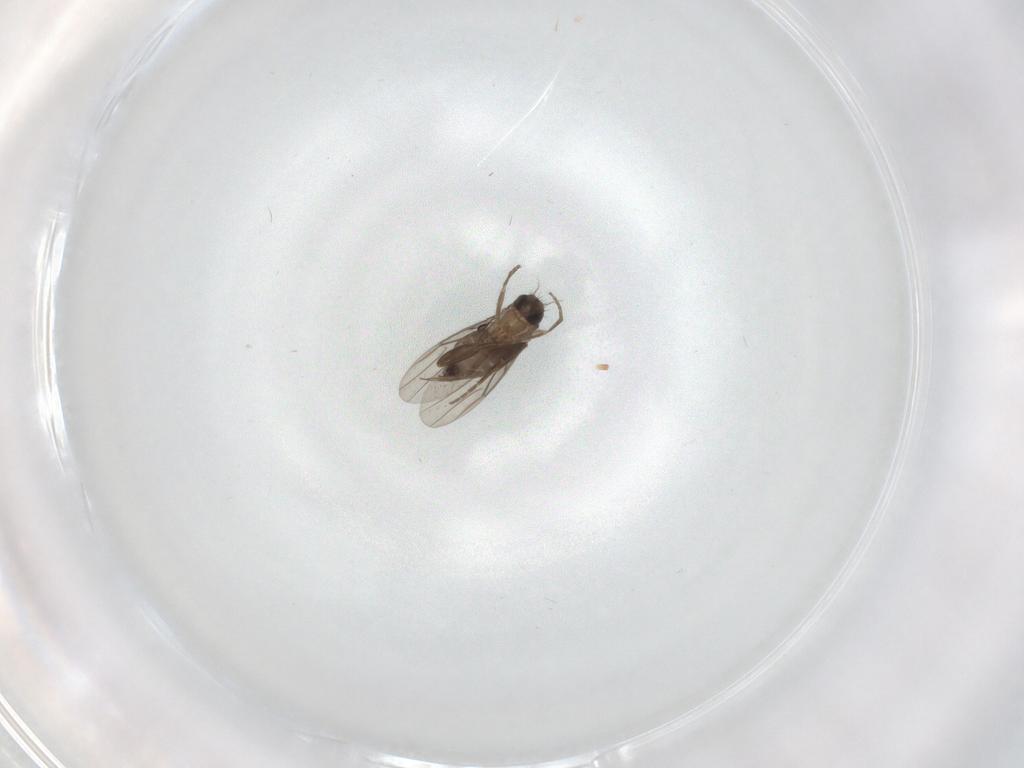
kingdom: Animalia
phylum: Arthropoda
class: Insecta
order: Diptera
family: Phoridae
